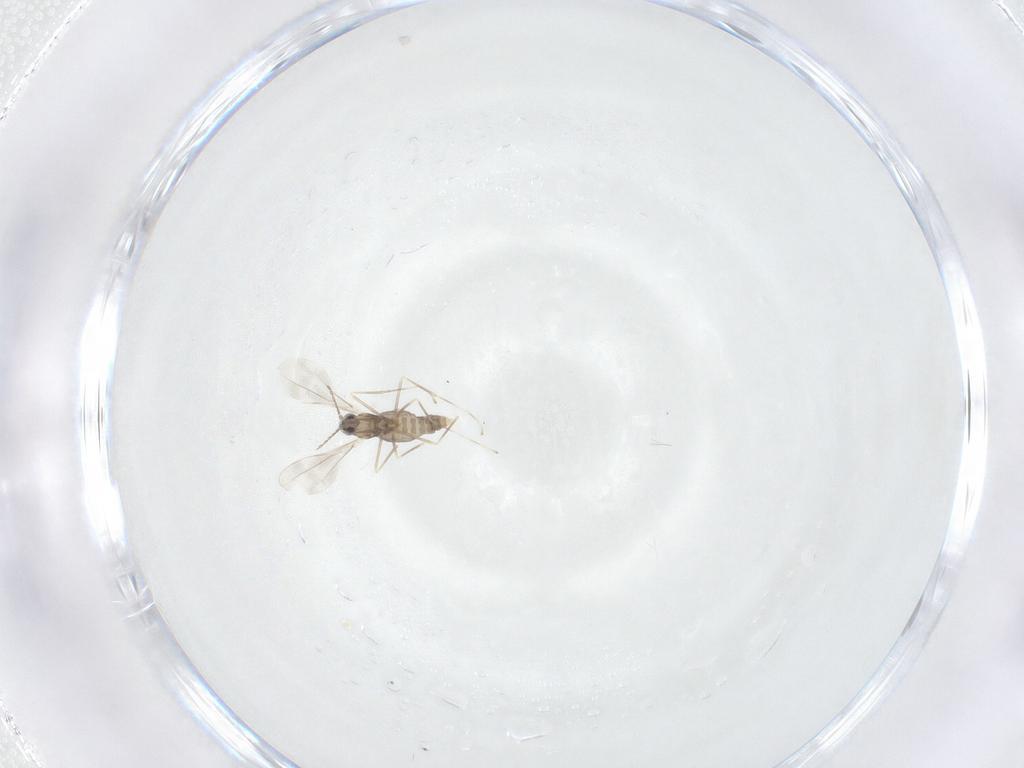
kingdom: Animalia
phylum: Arthropoda
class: Insecta
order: Diptera
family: Cecidomyiidae
